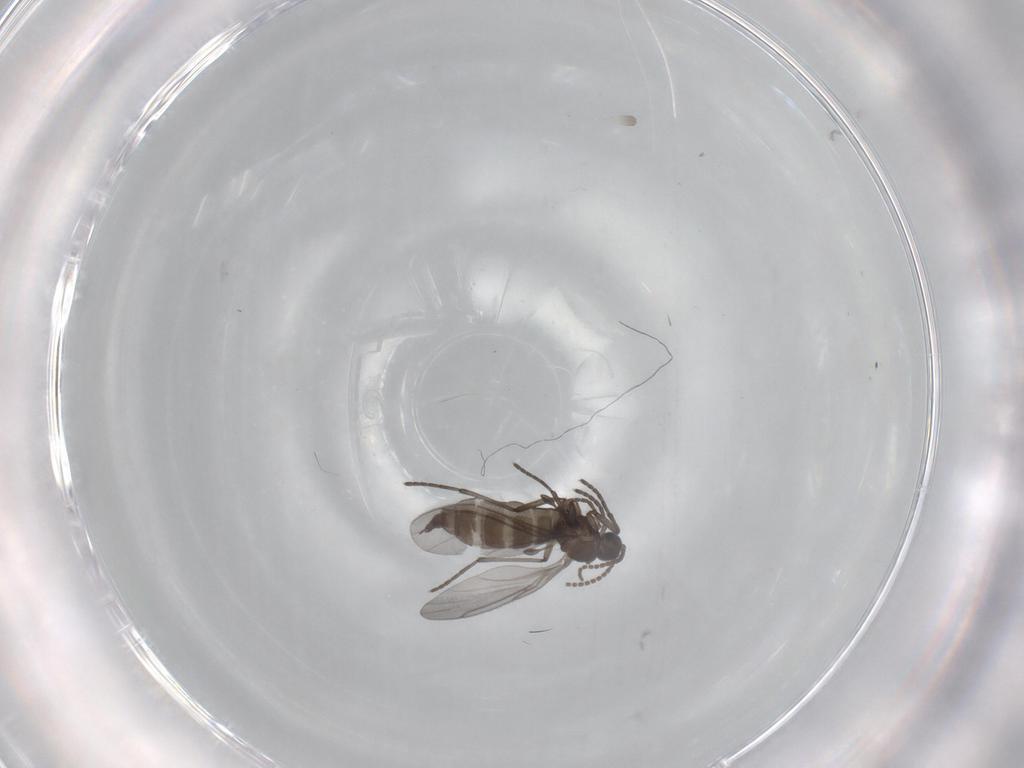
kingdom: Animalia
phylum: Arthropoda
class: Insecta
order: Diptera
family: Sciaridae
